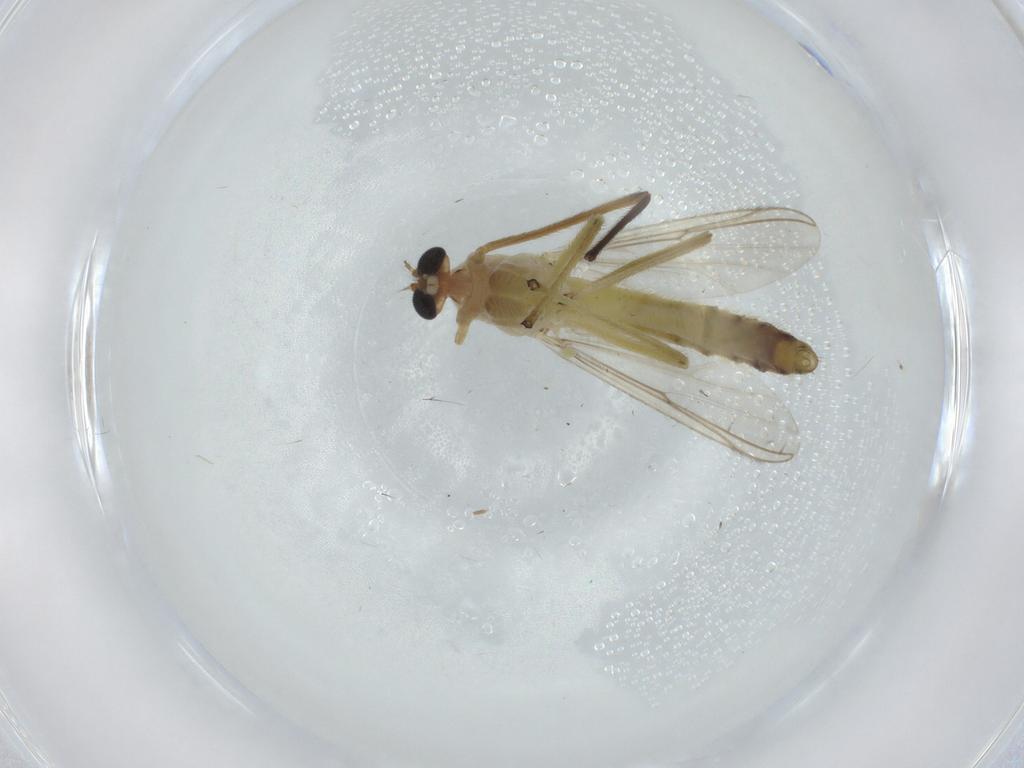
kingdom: Animalia
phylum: Arthropoda
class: Insecta
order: Diptera
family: Chironomidae
